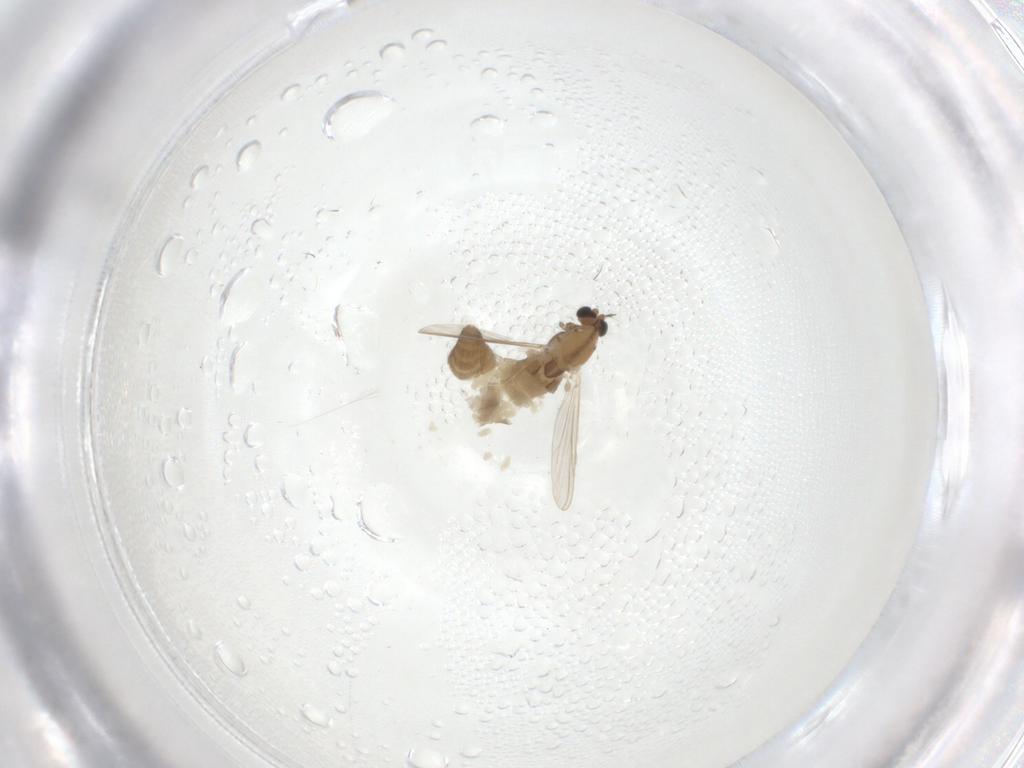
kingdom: Animalia
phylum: Arthropoda
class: Insecta
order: Diptera
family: Chironomidae
